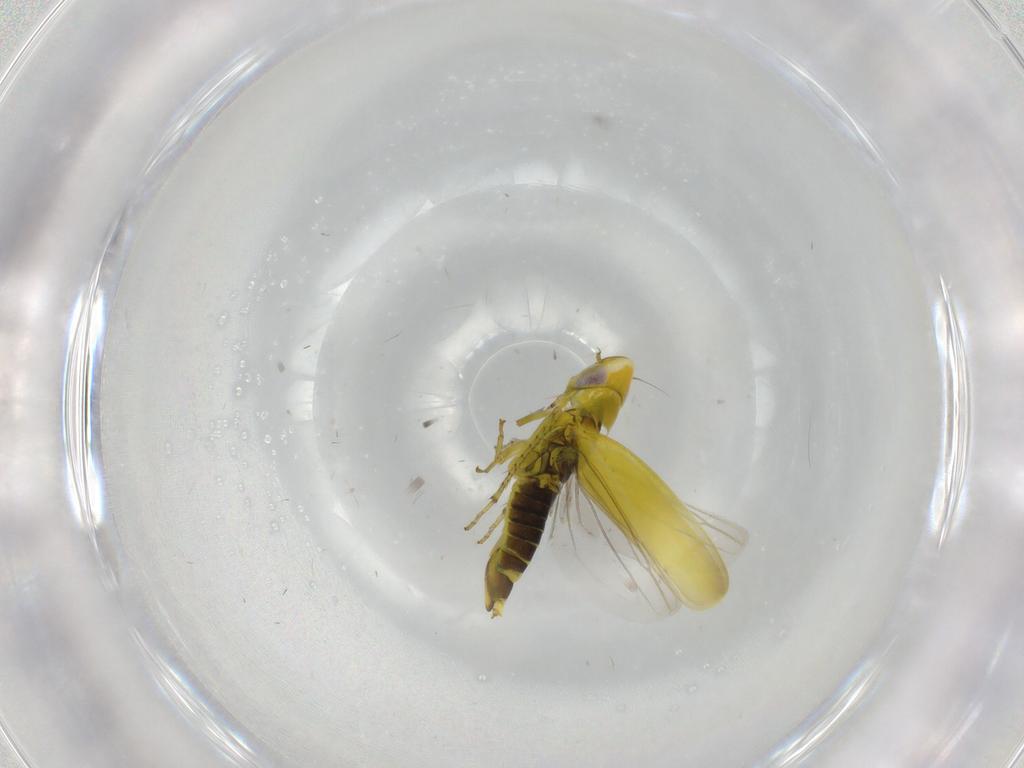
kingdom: Animalia
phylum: Arthropoda
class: Insecta
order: Hemiptera
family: Cicadellidae
